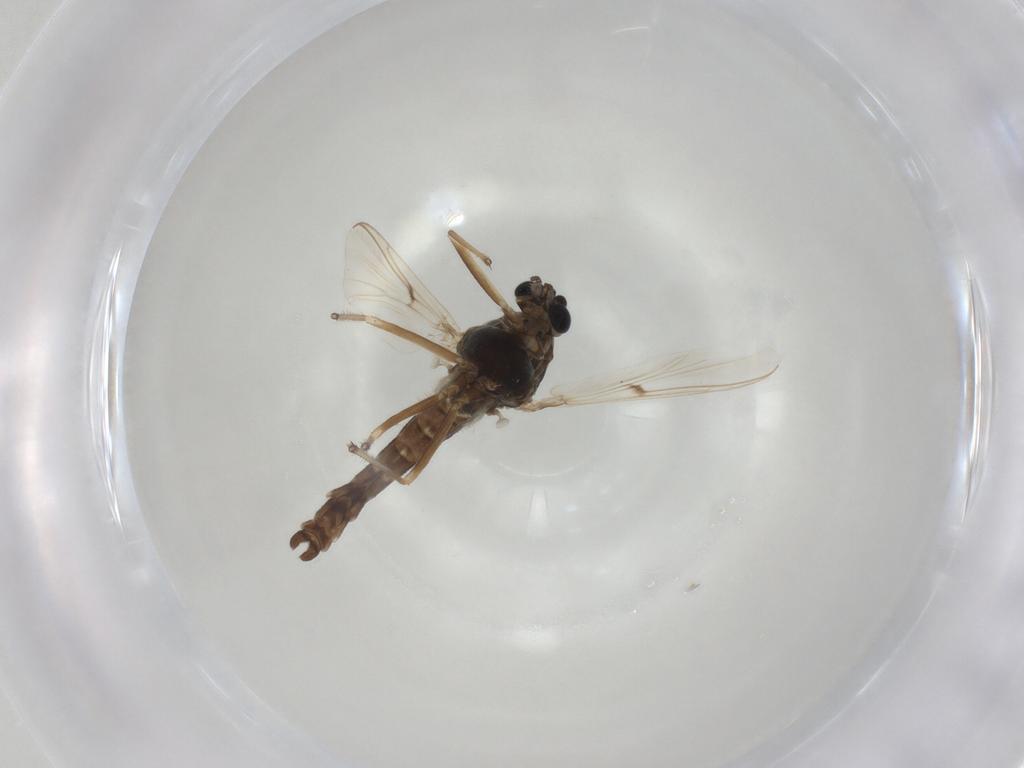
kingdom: Animalia
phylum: Arthropoda
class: Insecta
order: Diptera
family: Chironomidae
